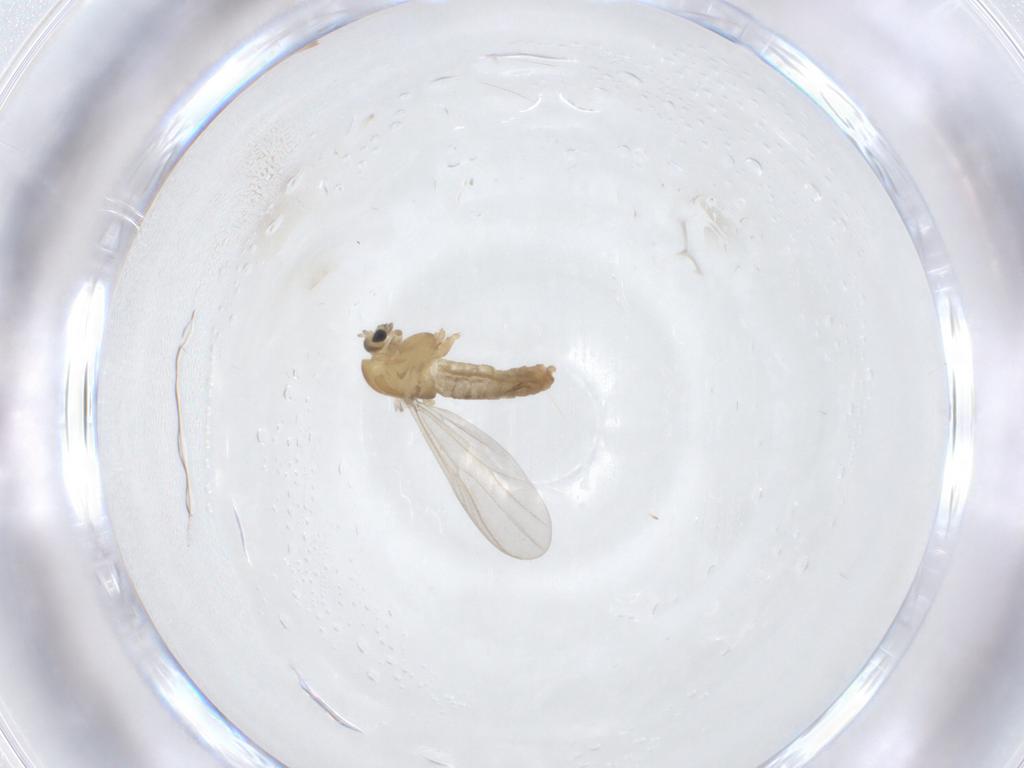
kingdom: Animalia
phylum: Arthropoda
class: Insecta
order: Diptera
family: Chironomidae
